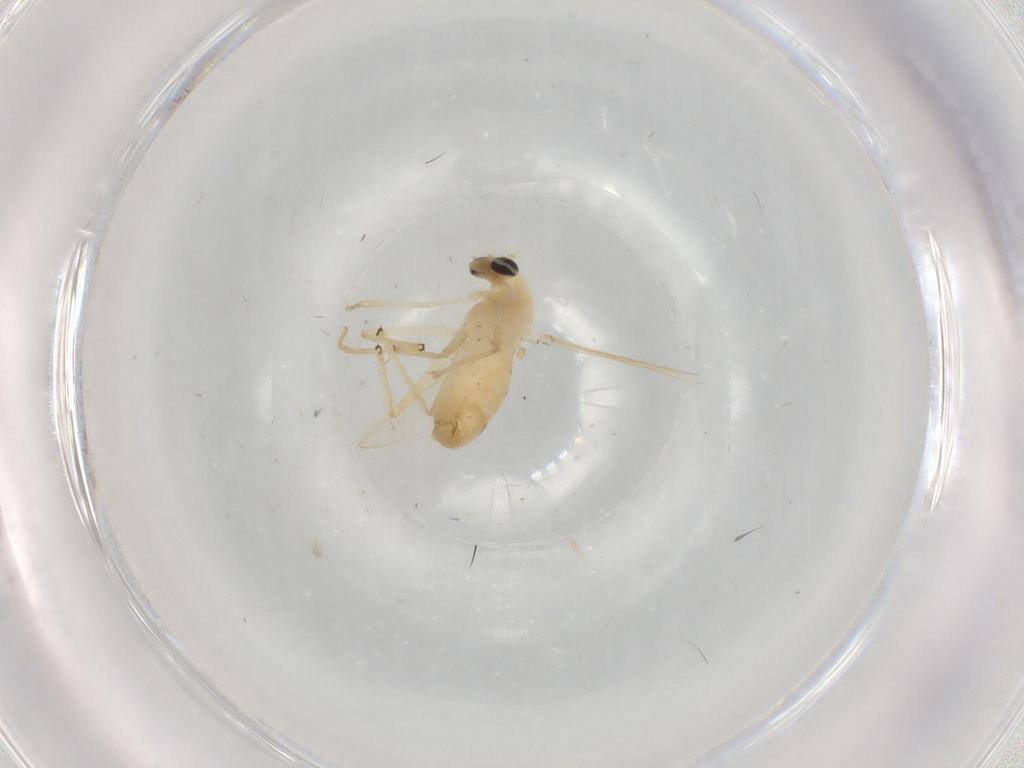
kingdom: Animalia
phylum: Arthropoda
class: Insecta
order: Diptera
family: Chironomidae
